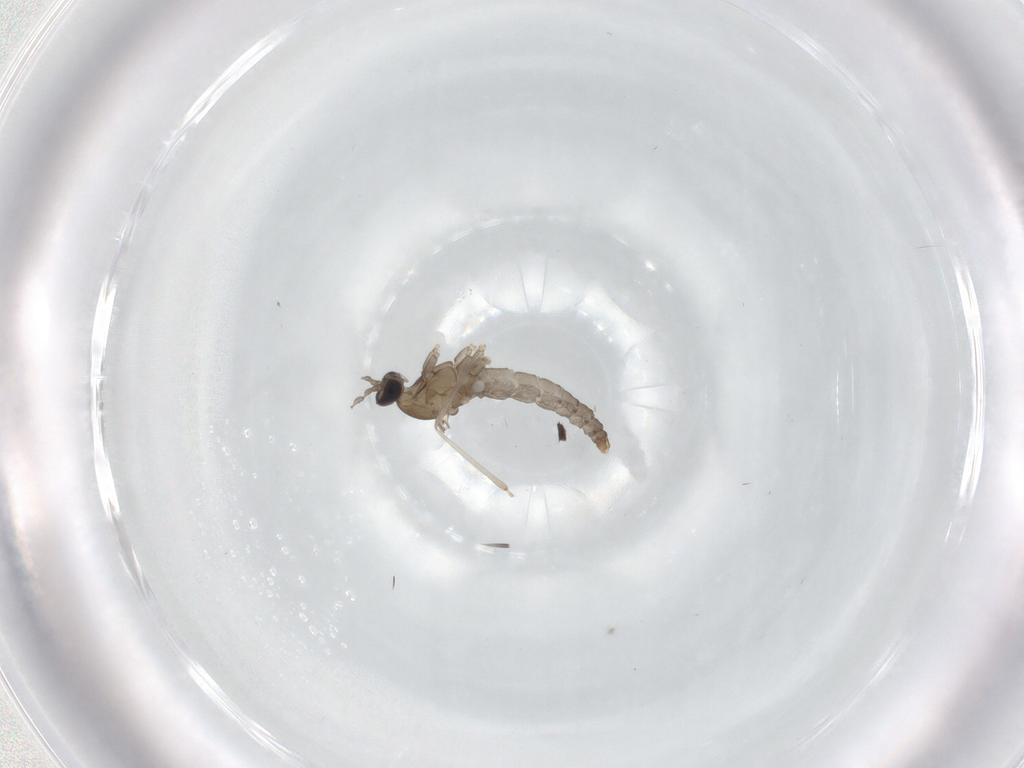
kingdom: Animalia
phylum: Arthropoda
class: Insecta
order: Diptera
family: Cecidomyiidae
